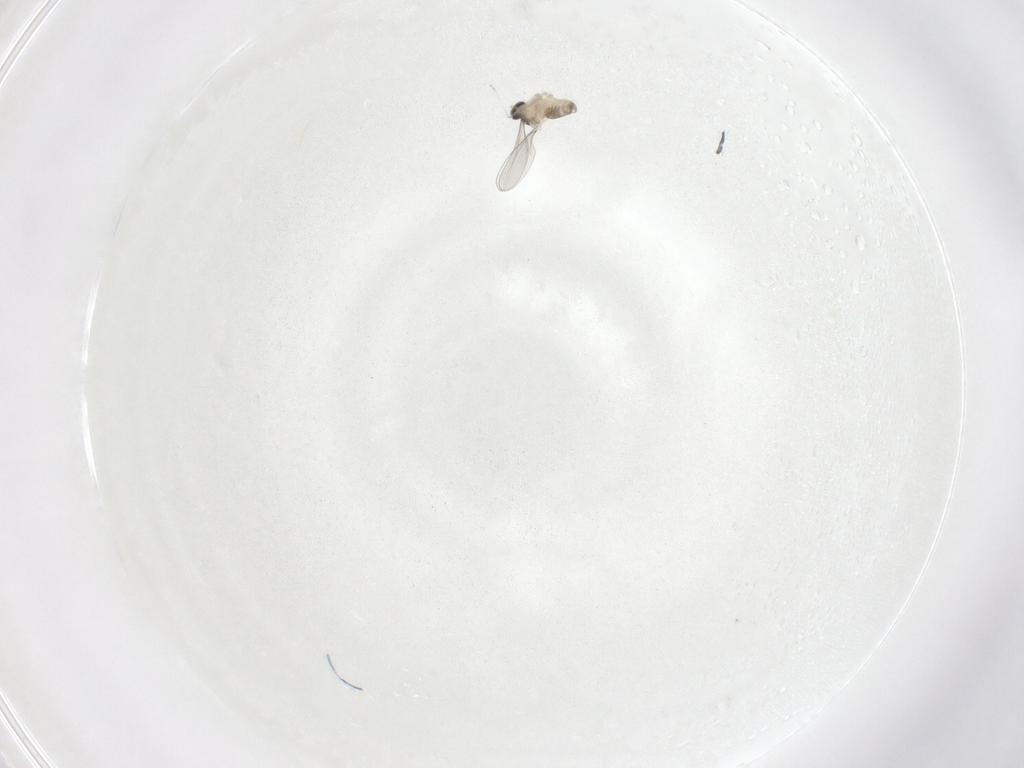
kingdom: Animalia
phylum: Arthropoda
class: Insecta
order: Diptera
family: Cecidomyiidae
